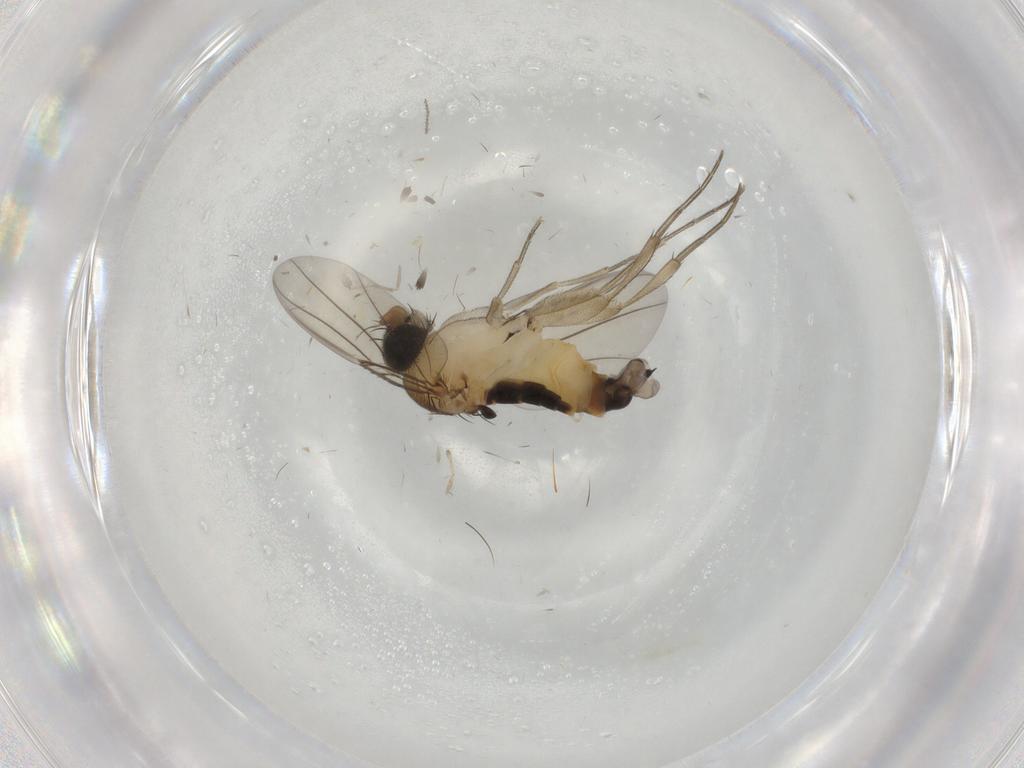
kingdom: Animalia
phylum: Arthropoda
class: Insecta
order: Diptera
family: Phoridae
